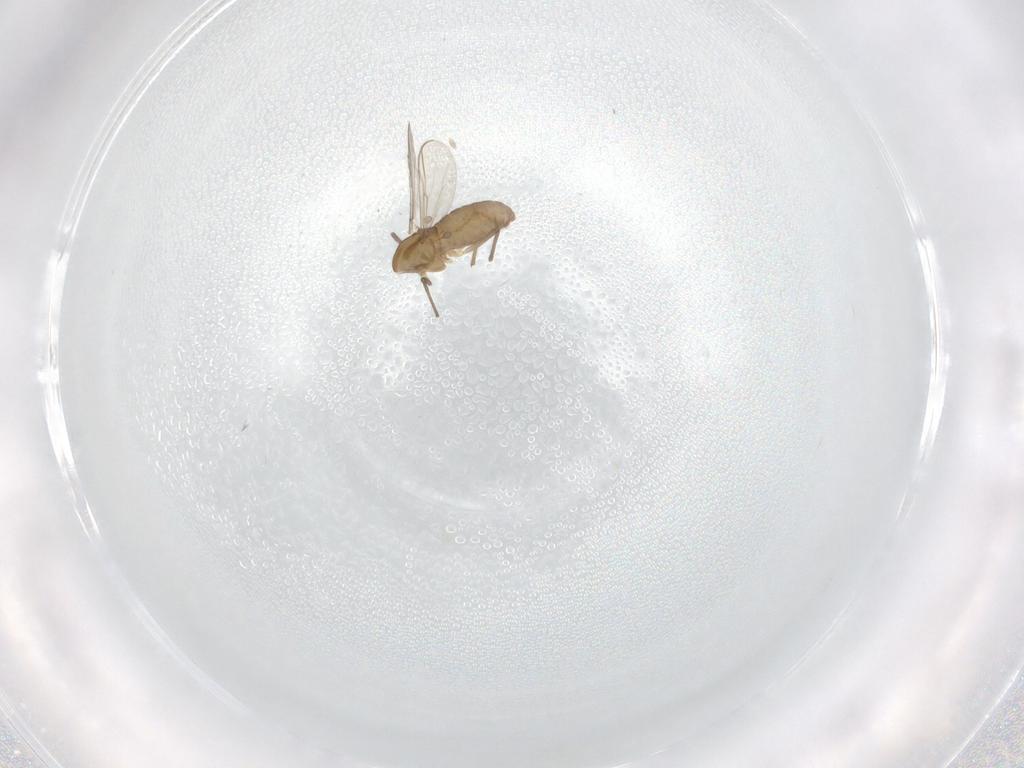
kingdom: Animalia
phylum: Arthropoda
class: Insecta
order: Diptera
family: Chironomidae
